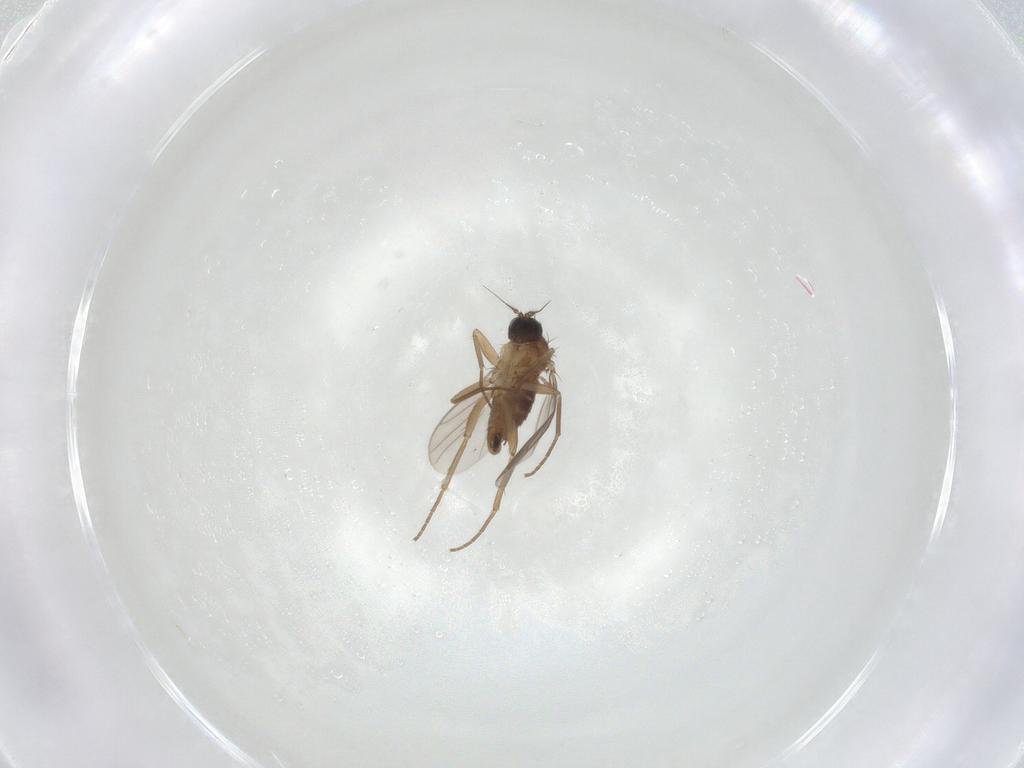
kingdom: Animalia
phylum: Arthropoda
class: Insecta
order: Diptera
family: Hybotidae
